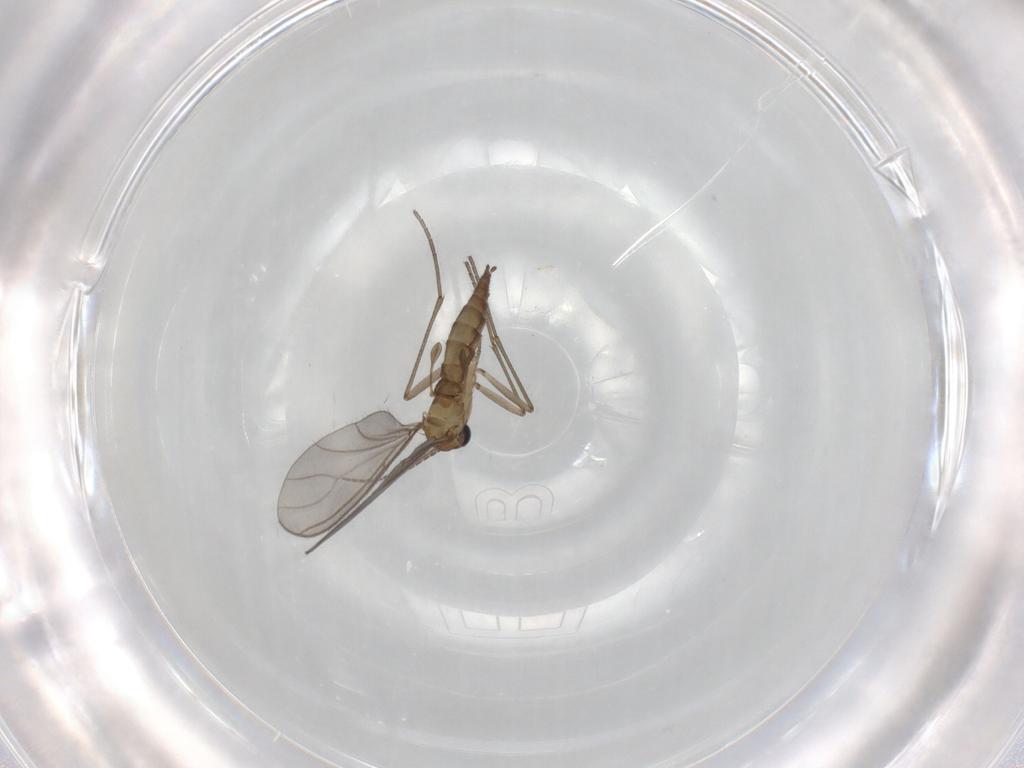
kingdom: Animalia
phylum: Arthropoda
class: Insecta
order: Diptera
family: Sciaridae
